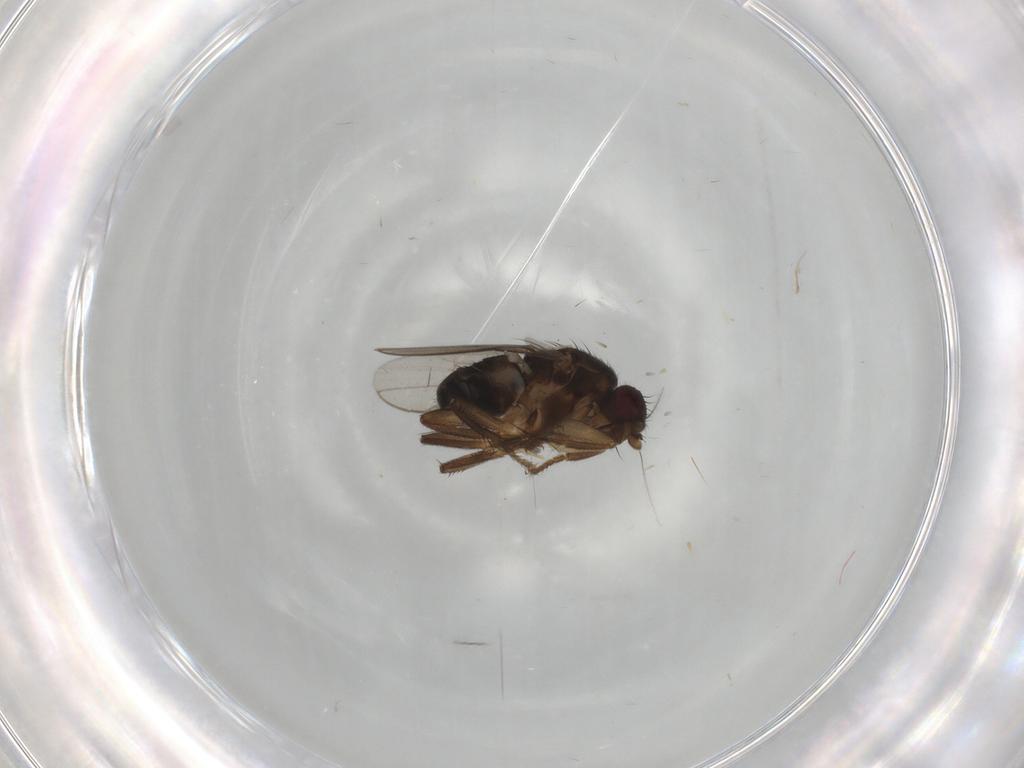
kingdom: Animalia
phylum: Arthropoda
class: Insecta
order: Diptera
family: Sphaeroceridae
